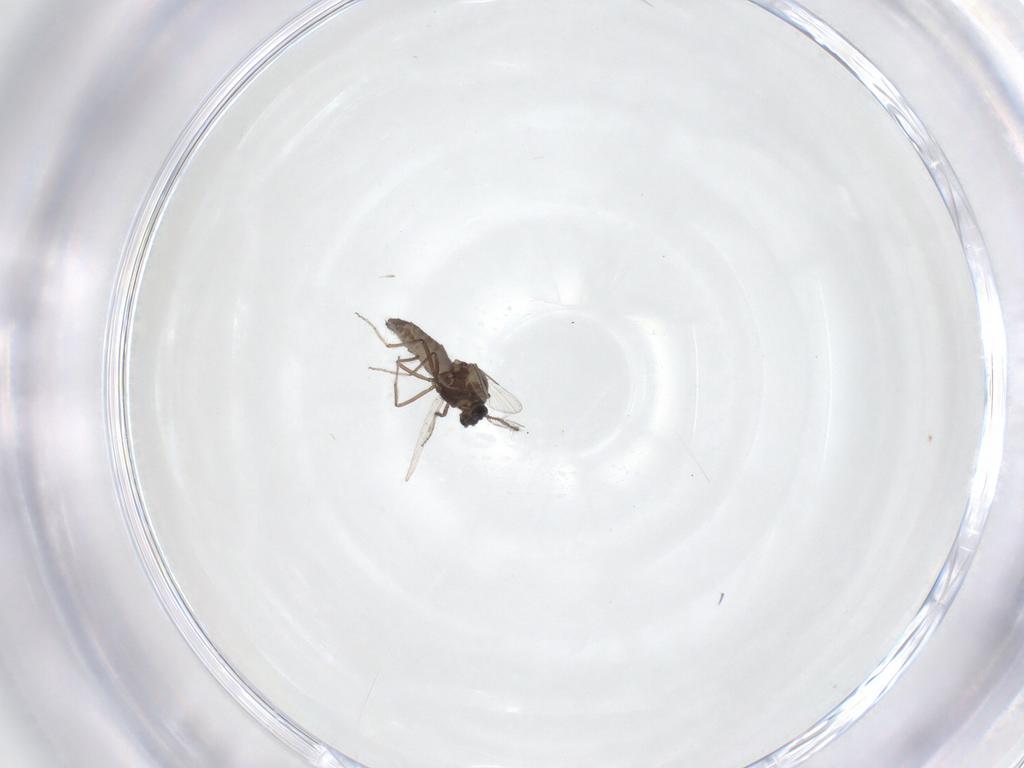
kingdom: Animalia
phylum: Arthropoda
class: Insecta
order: Diptera
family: Ceratopogonidae
